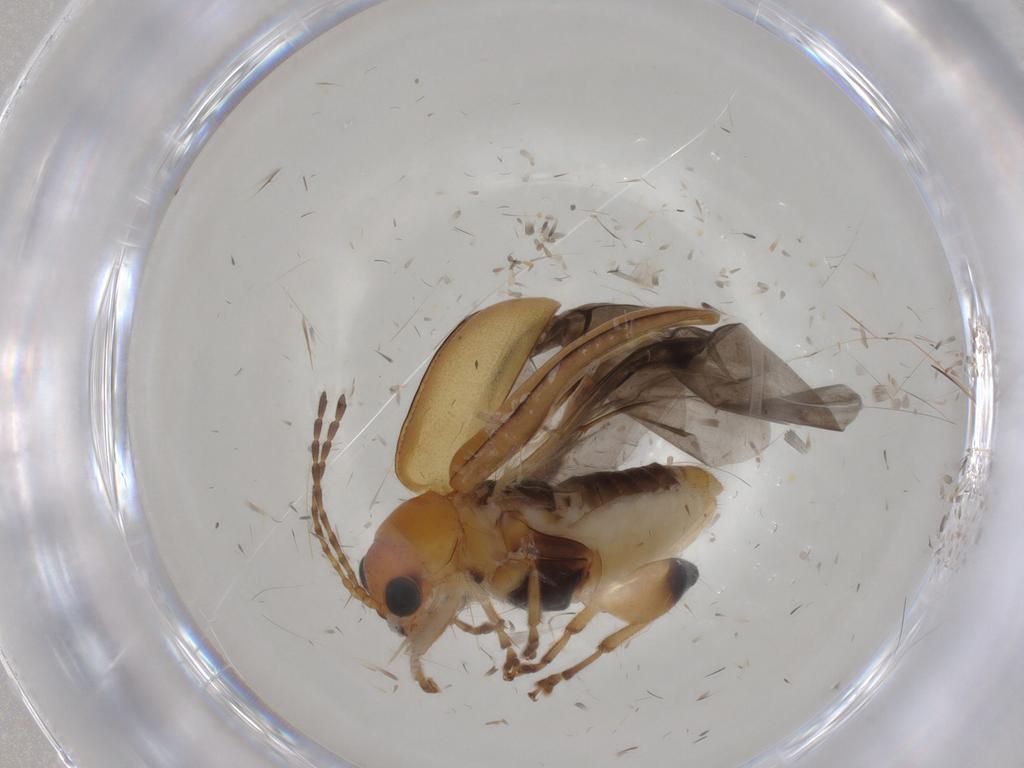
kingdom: Animalia
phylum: Arthropoda
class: Insecta
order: Coleoptera
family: Chrysomelidae
